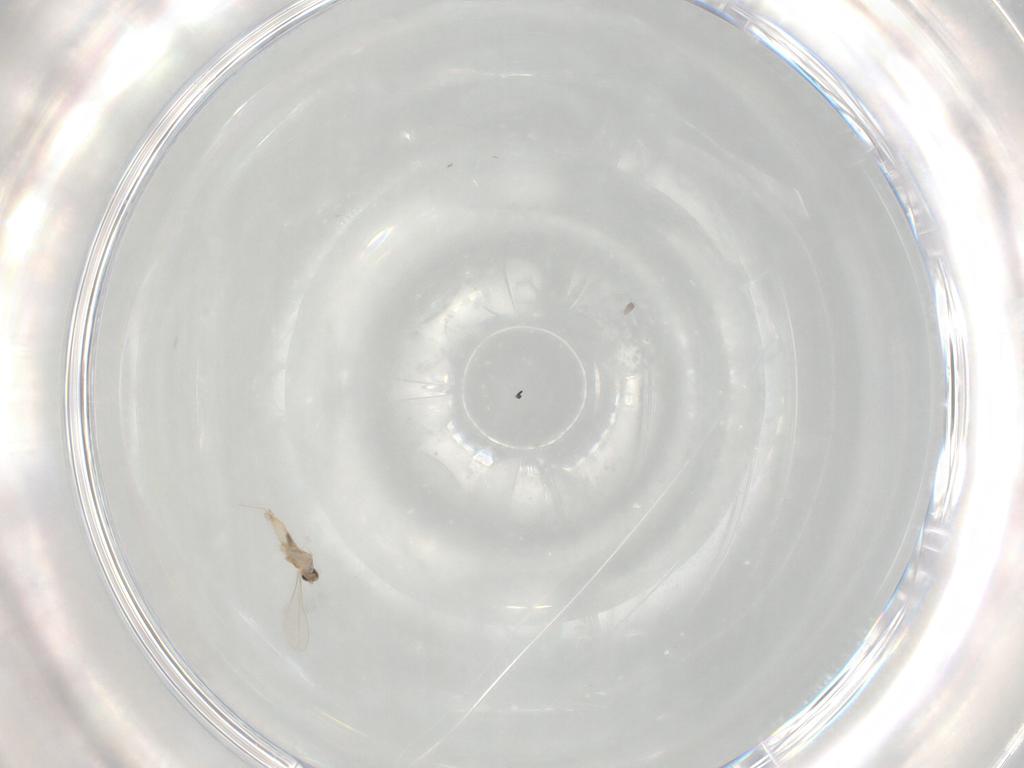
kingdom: Animalia
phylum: Arthropoda
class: Insecta
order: Diptera
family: Cecidomyiidae
